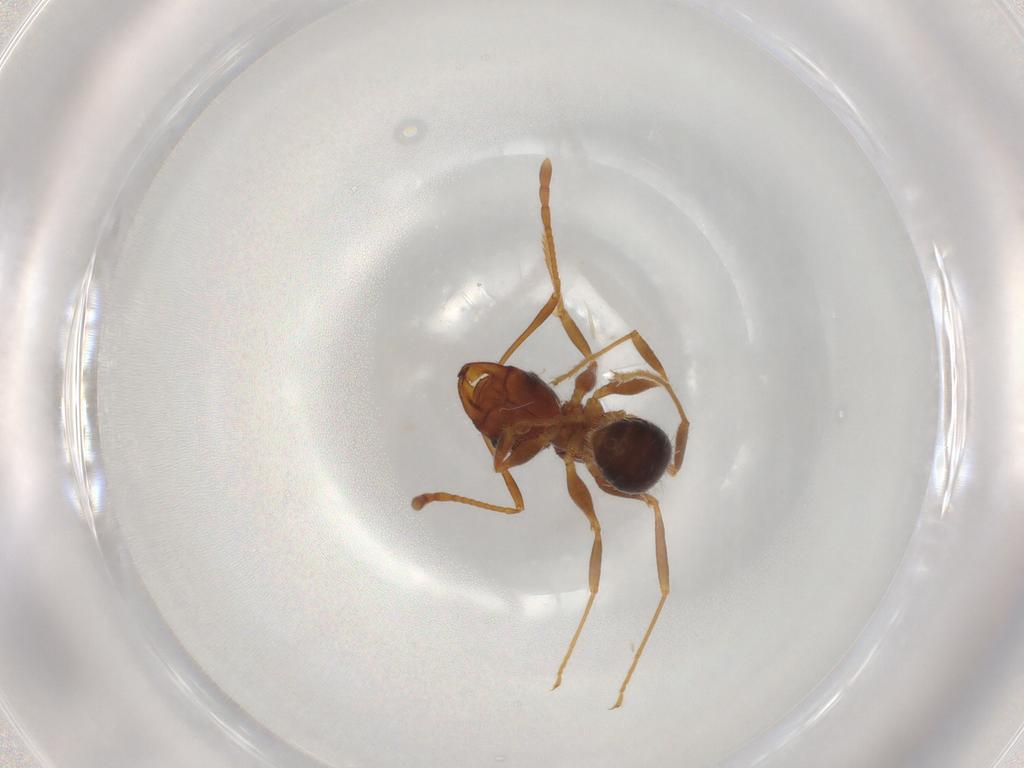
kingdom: Animalia
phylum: Arthropoda
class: Insecta
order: Hymenoptera
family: Formicidae
